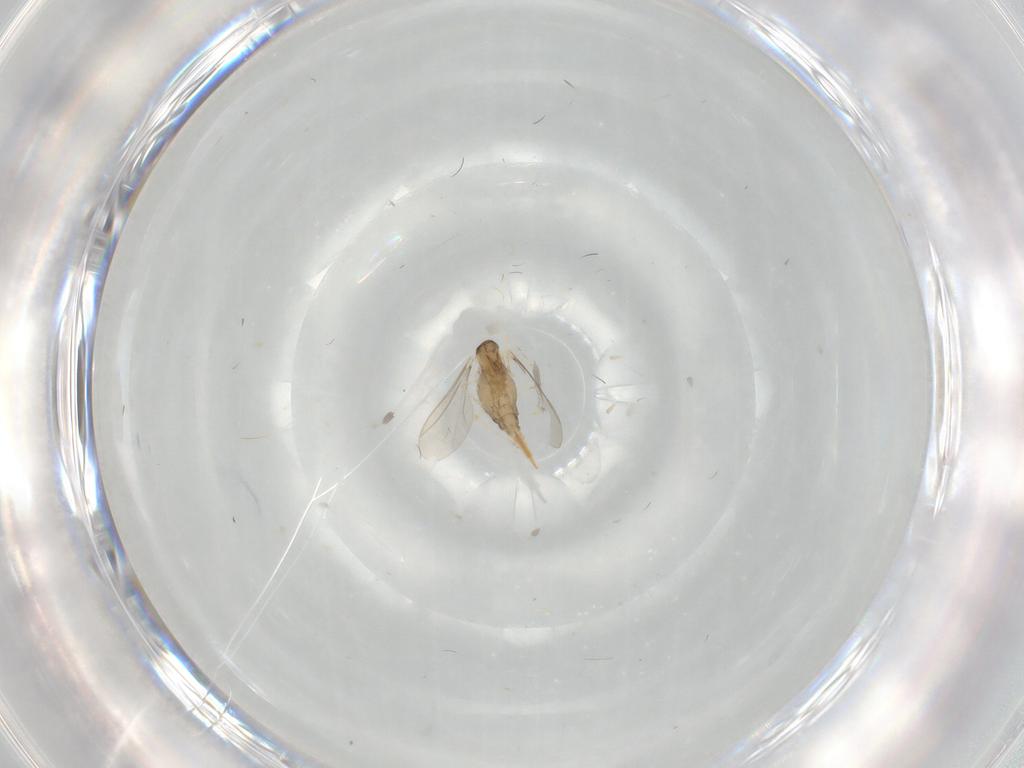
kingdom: Animalia
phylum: Arthropoda
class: Insecta
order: Diptera
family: Cecidomyiidae
